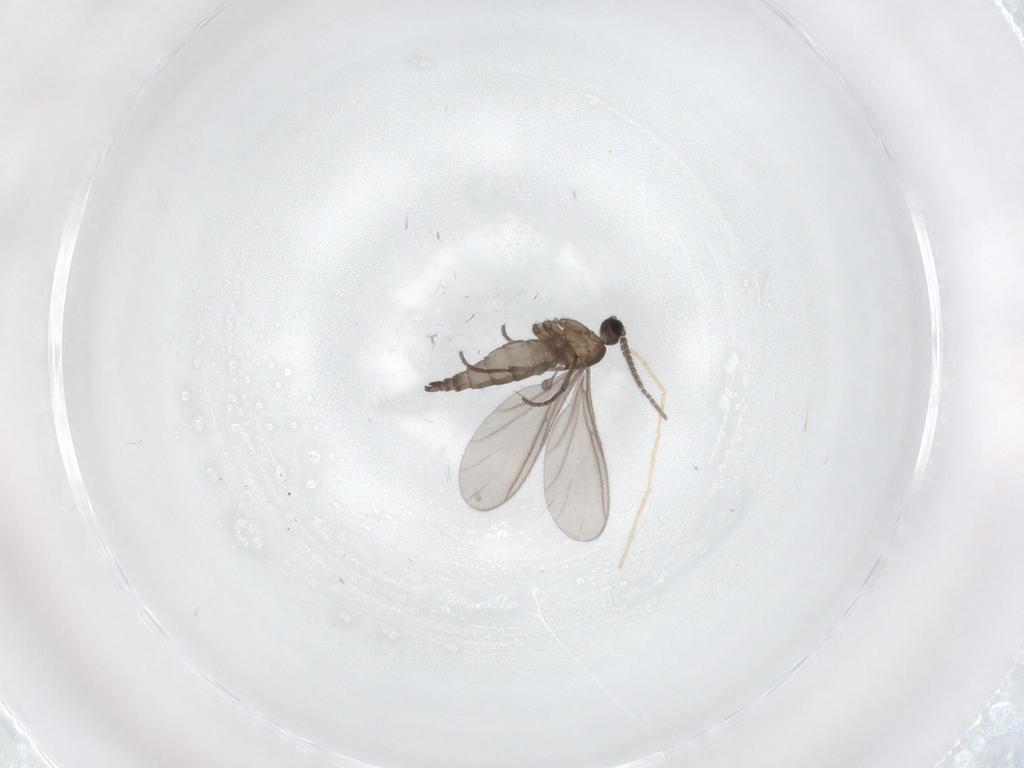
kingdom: Animalia
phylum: Arthropoda
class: Insecta
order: Diptera
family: Sciaridae
